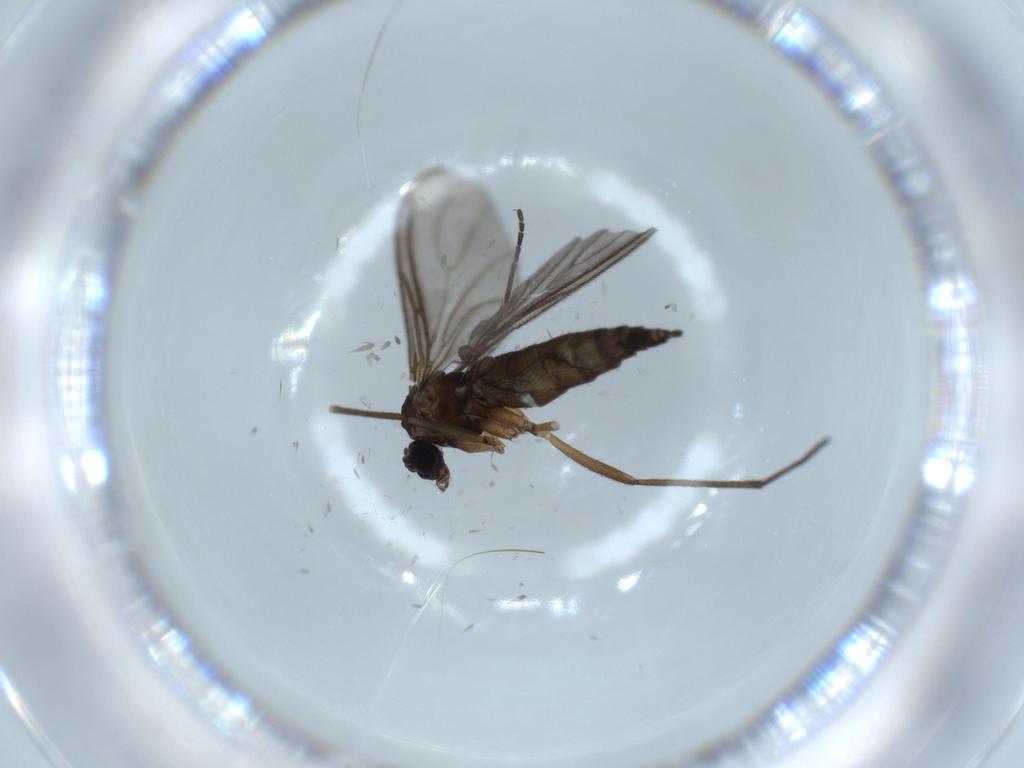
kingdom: Animalia
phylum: Arthropoda
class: Insecta
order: Diptera
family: Sciaridae
